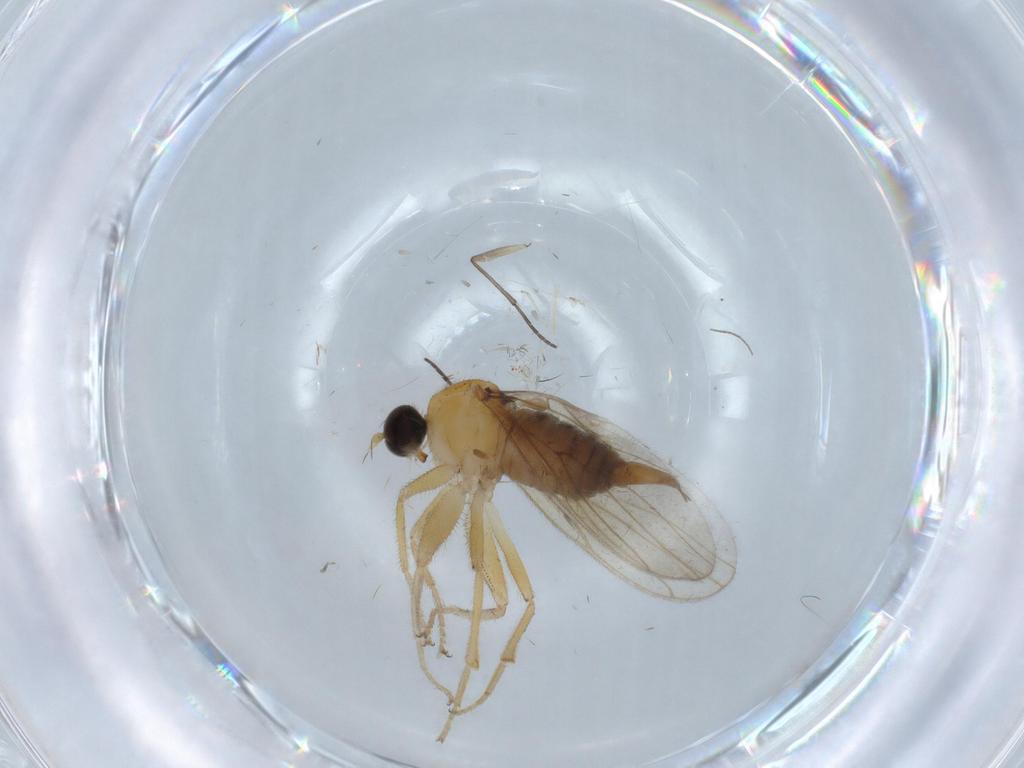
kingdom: Animalia
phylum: Arthropoda
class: Insecta
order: Diptera
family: Hybotidae
